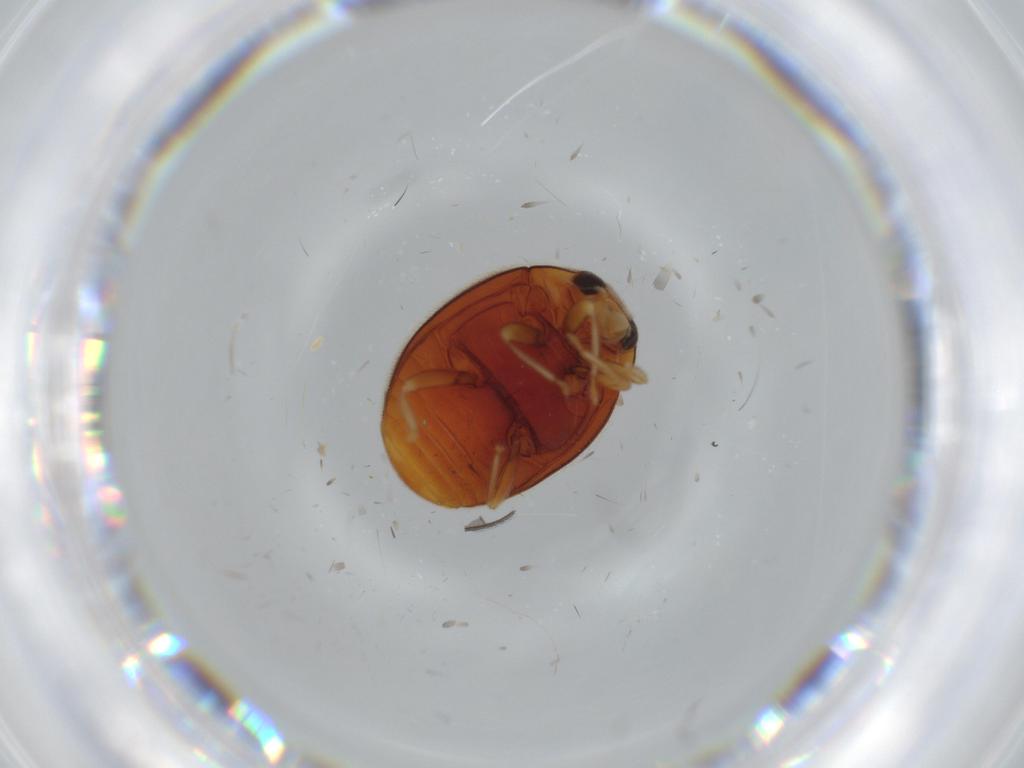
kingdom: Animalia
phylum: Arthropoda
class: Insecta
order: Coleoptera
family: Coccinellidae
